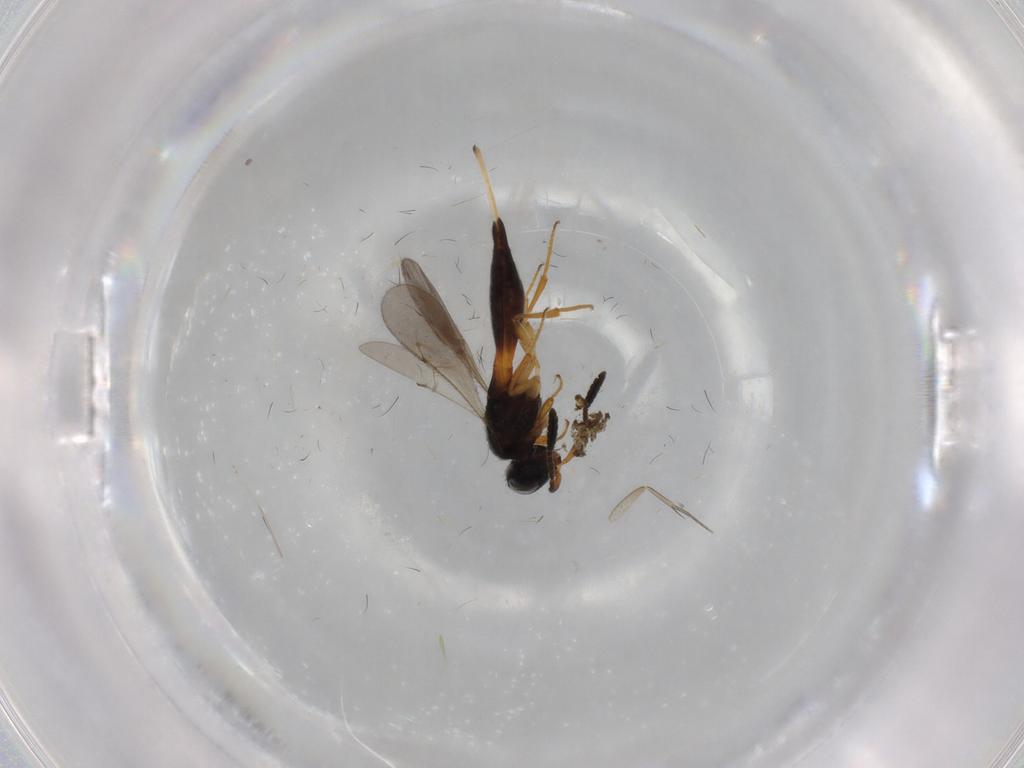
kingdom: Animalia
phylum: Arthropoda
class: Insecta
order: Hymenoptera
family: Scelionidae
